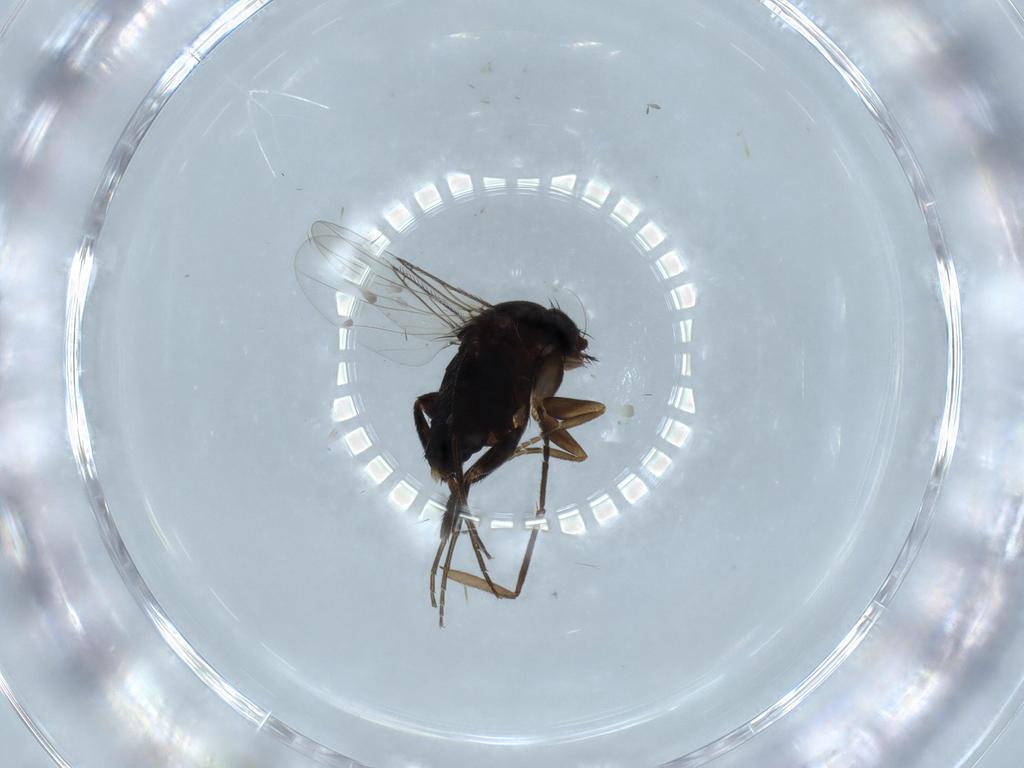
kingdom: Animalia
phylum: Arthropoda
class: Insecta
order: Diptera
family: Phoridae
